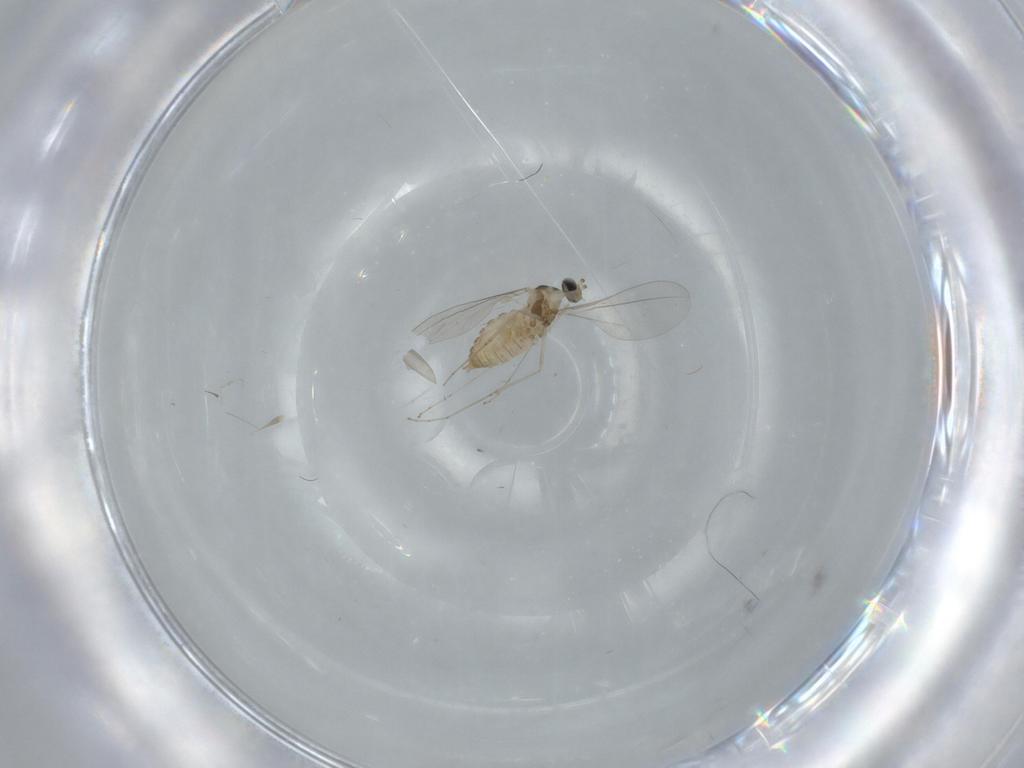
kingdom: Animalia
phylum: Arthropoda
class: Insecta
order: Diptera
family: Cecidomyiidae
